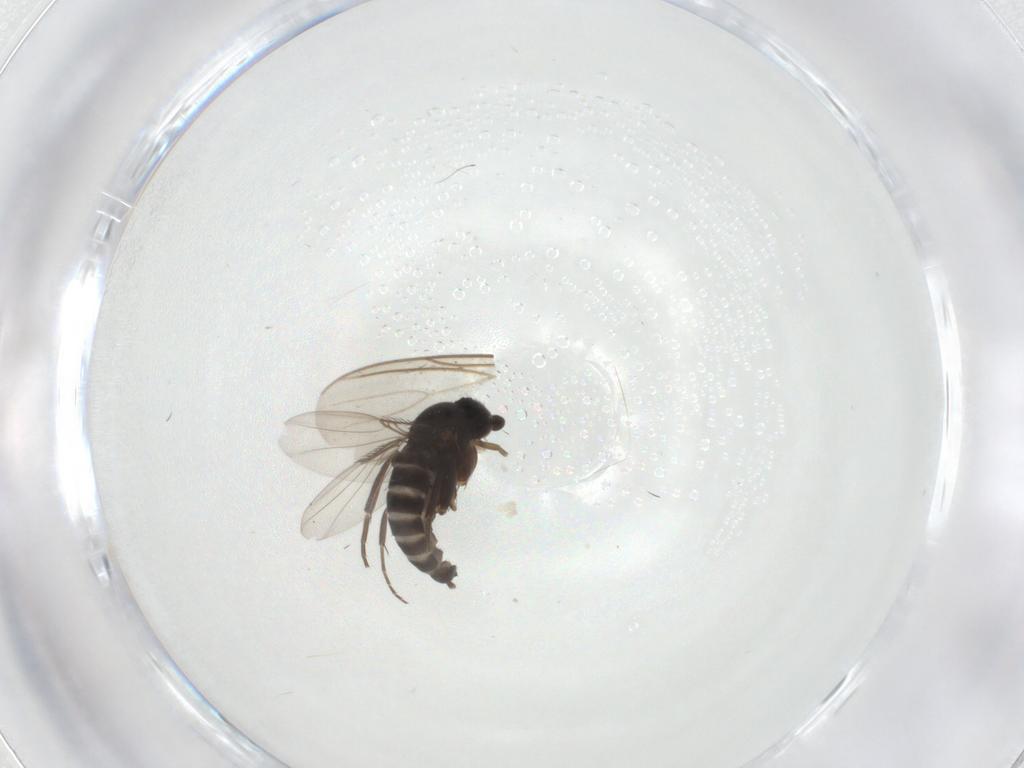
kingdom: Animalia
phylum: Arthropoda
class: Insecta
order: Diptera
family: Mycetophilidae
